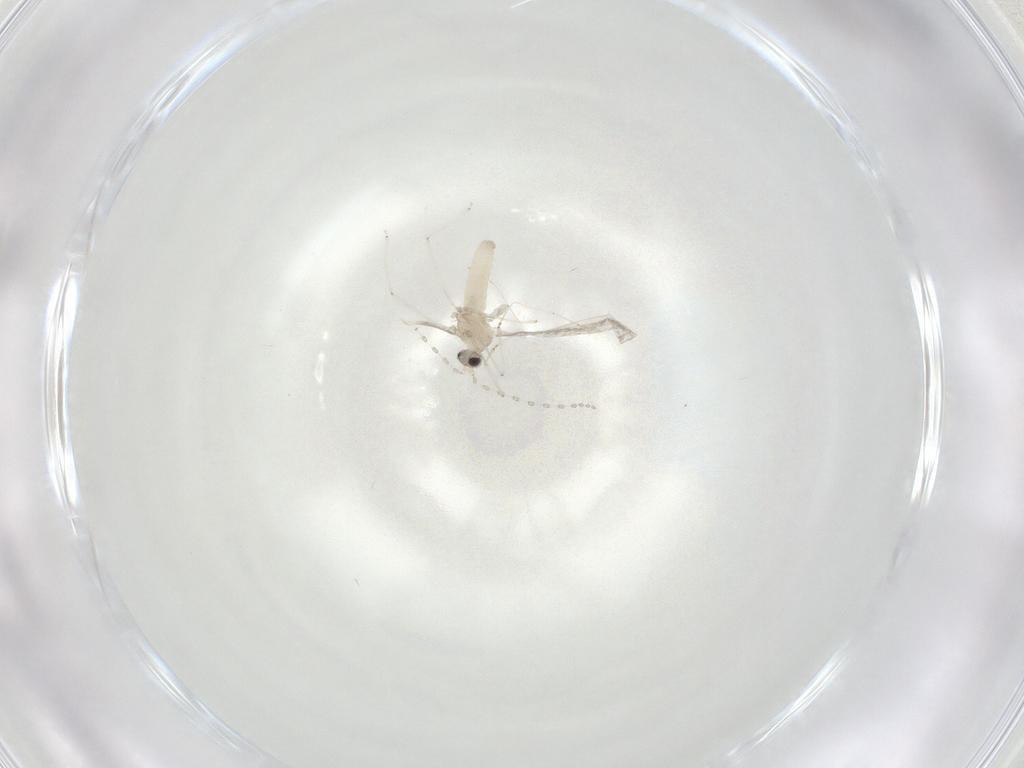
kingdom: Animalia
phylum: Arthropoda
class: Insecta
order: Diptera
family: Cecidomyiidae
